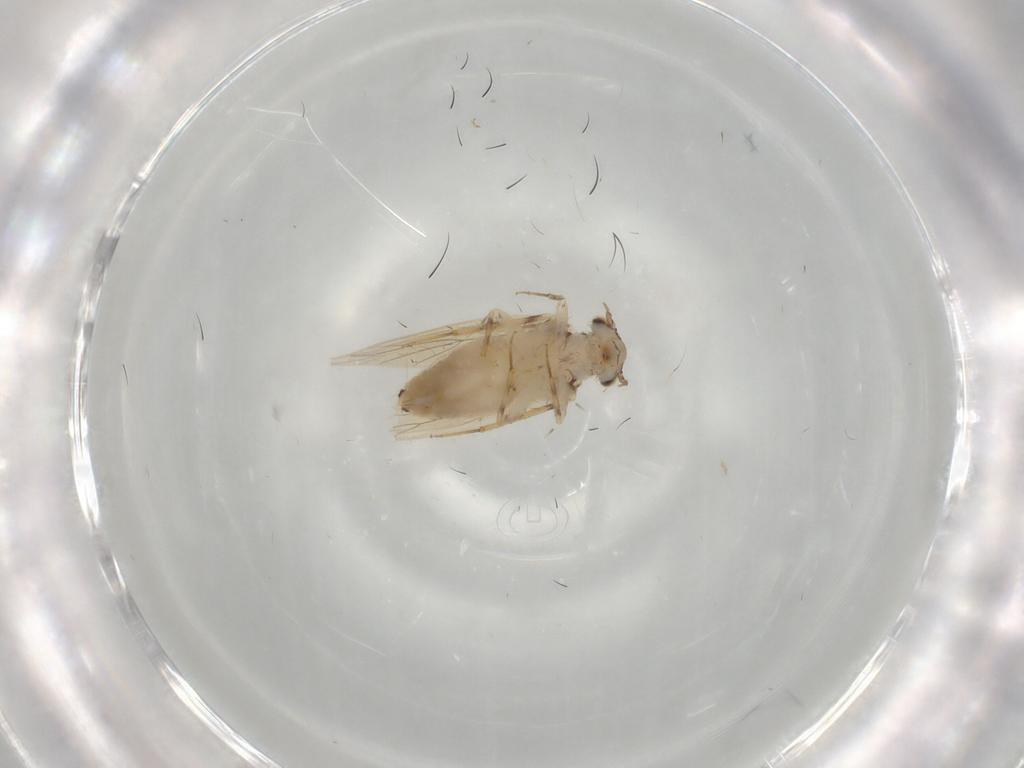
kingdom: Animalia
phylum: Arthropoda
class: Insecta
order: Psocodea
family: Caeciliusidae
